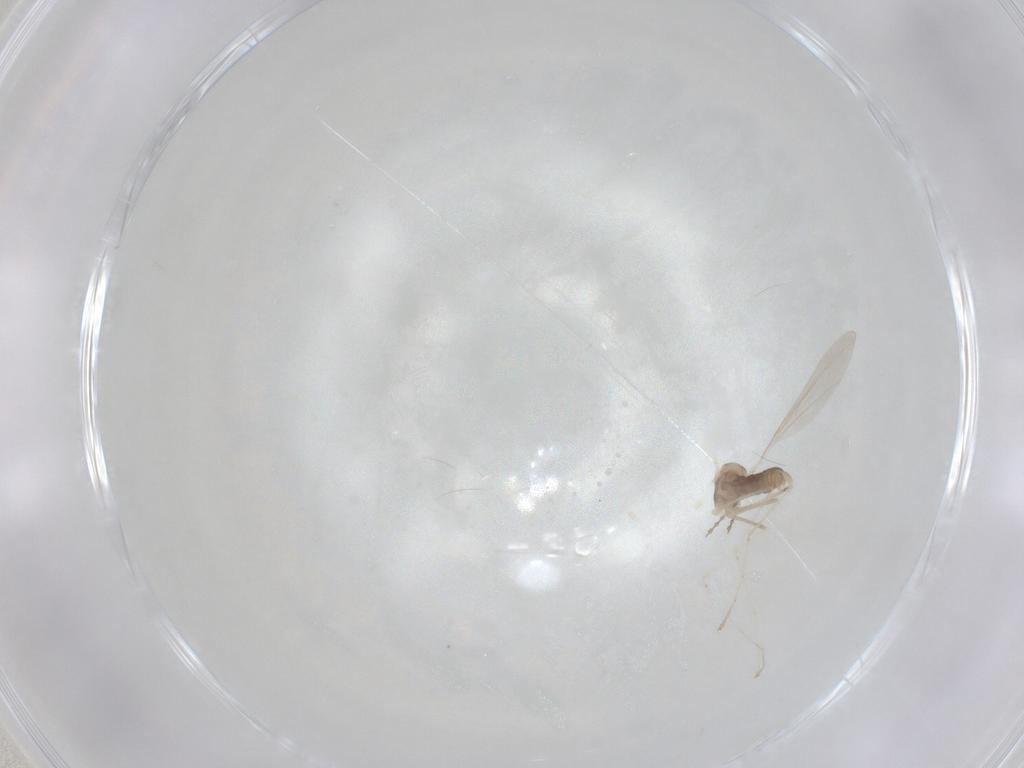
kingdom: Animalia
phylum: Arthropoda
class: Insecta
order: Diptera
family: Cecidomyiidae
